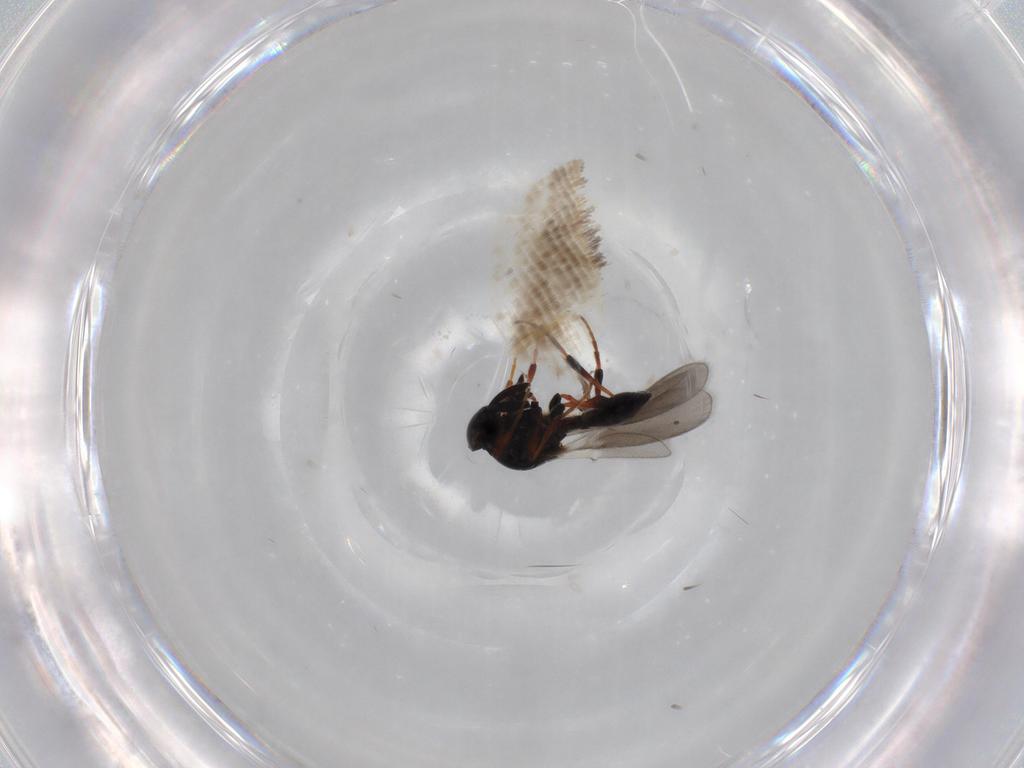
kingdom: Animalia
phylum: Arthropoda
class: Insecta
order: Hymenoptera
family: Platygastridae
